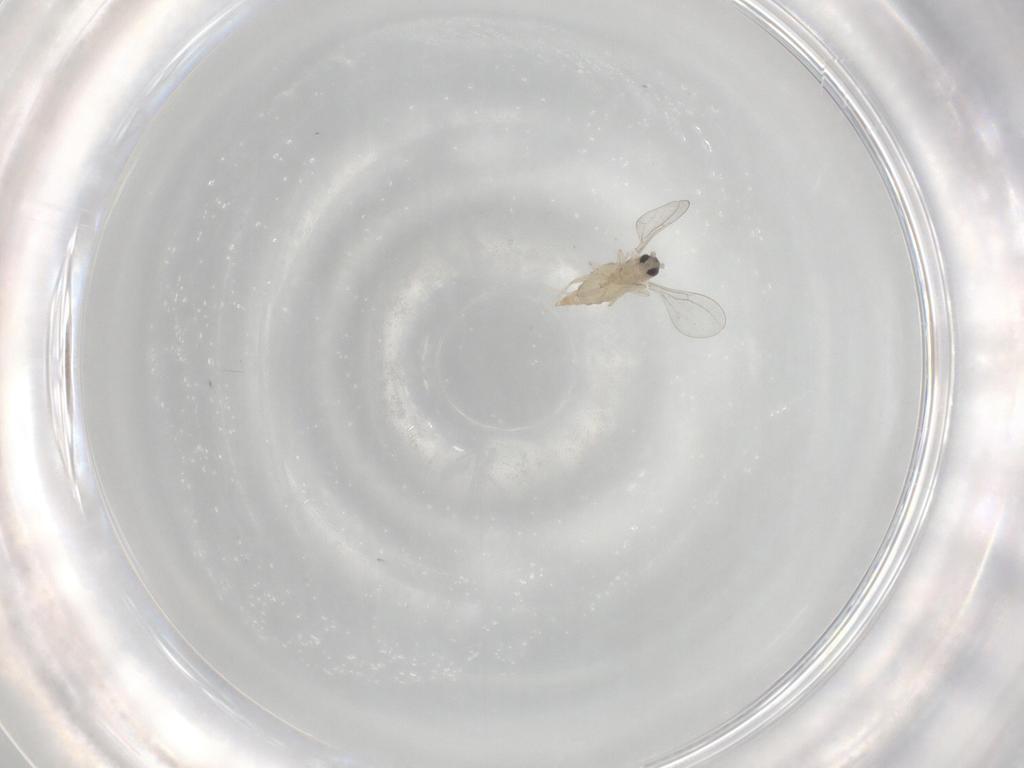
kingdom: Animalia
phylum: Arthropoda
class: Insecta
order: Diptera
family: Cecidomyiidae
